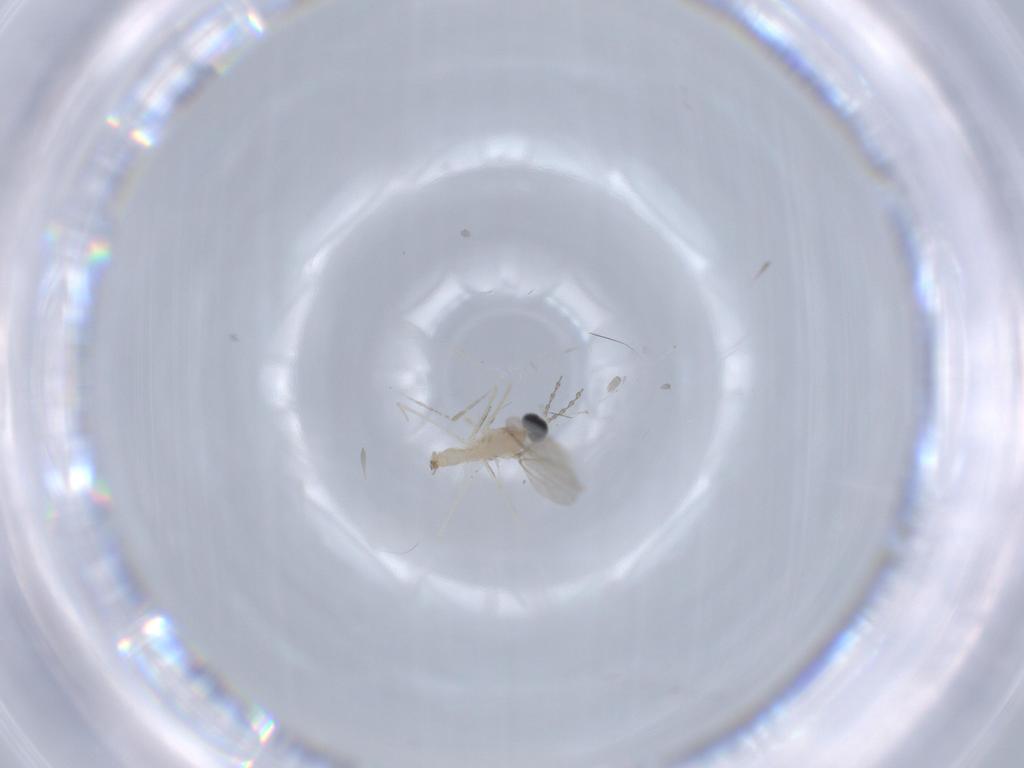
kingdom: Animalia
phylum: Arthropoda
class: Insecta
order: Diptera
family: Cecidomyiidae
